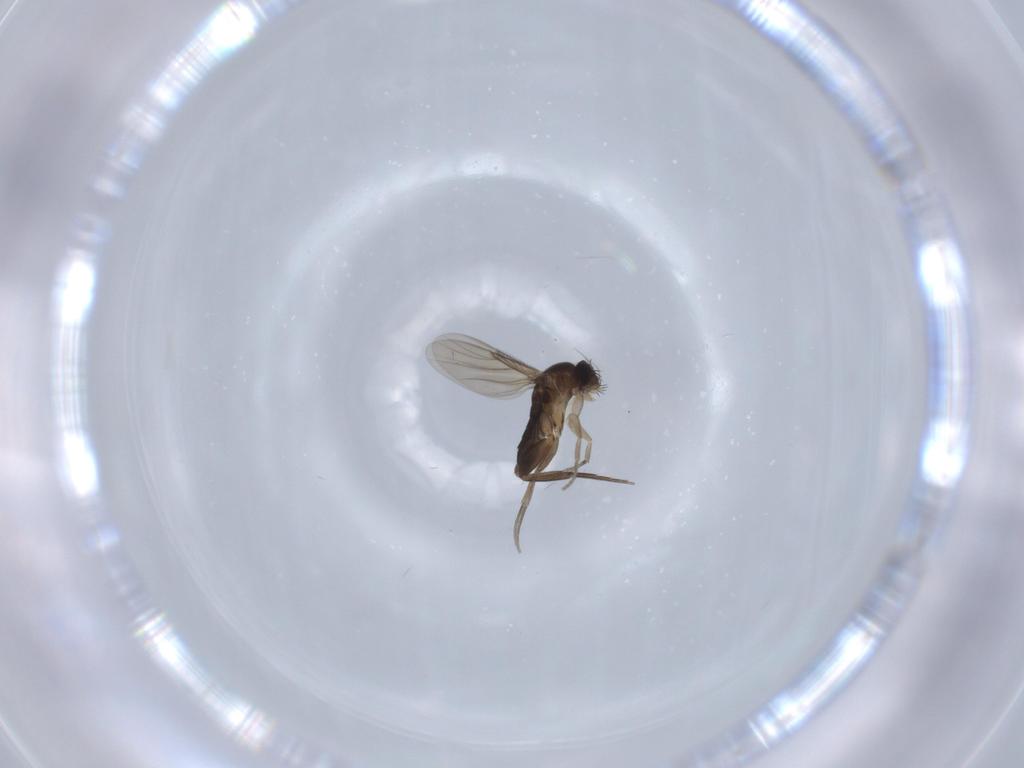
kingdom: Animalia
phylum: Arthropoda
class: Insecta
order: Diptera
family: Phoridae
